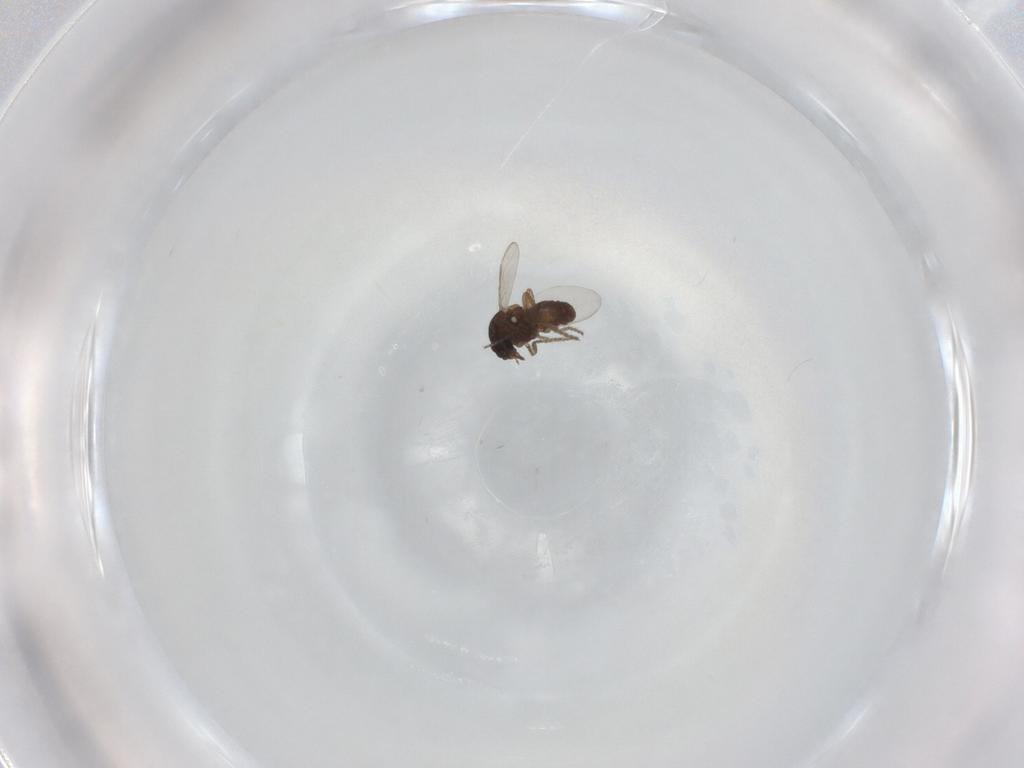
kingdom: Animalia
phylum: Arthropoda
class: Insecta
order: Diptera
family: Ceratopogonidae
